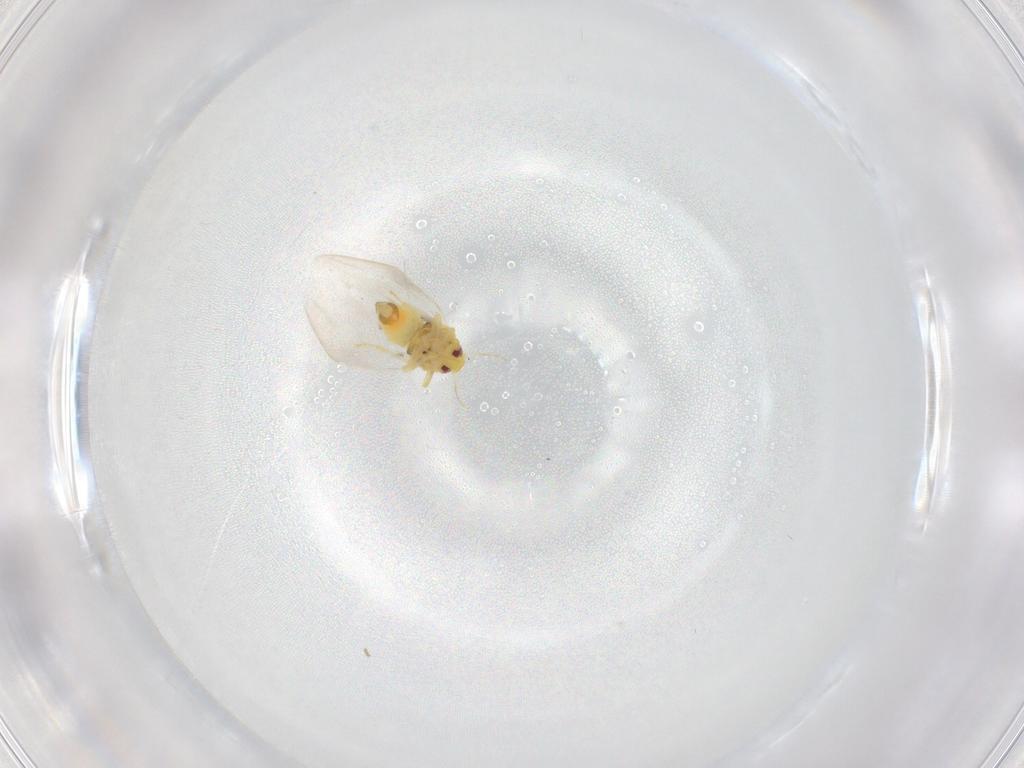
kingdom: Animalia
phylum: Arthropoda
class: Insecta
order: Hemiptera
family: Aleyrodidae
